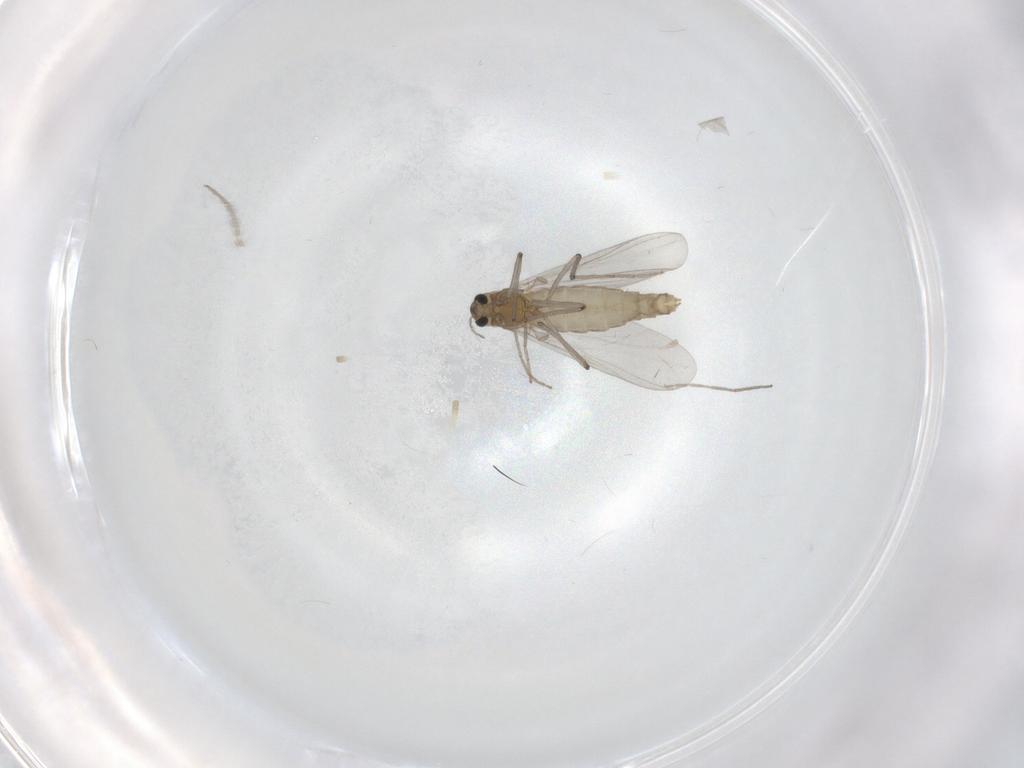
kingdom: Animalia
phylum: Arthropoda
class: Insecta
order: Diptera
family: Chironomidae
